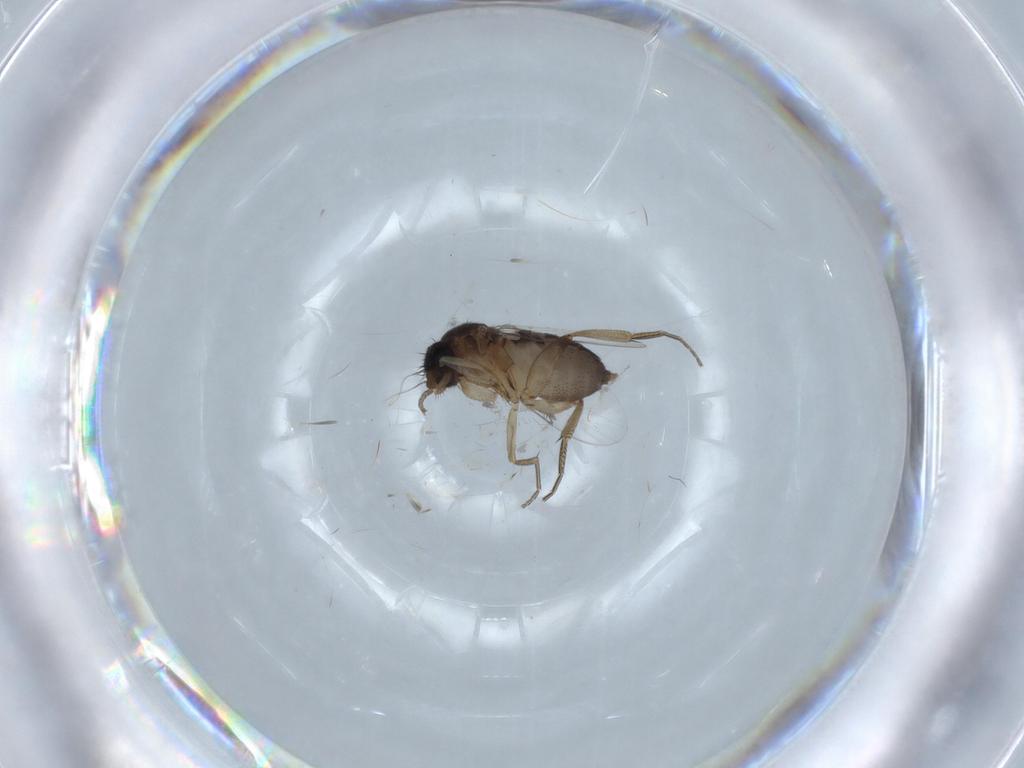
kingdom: Animalia
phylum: Arthropoda
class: Insecta
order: Diptera
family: Phoridae
